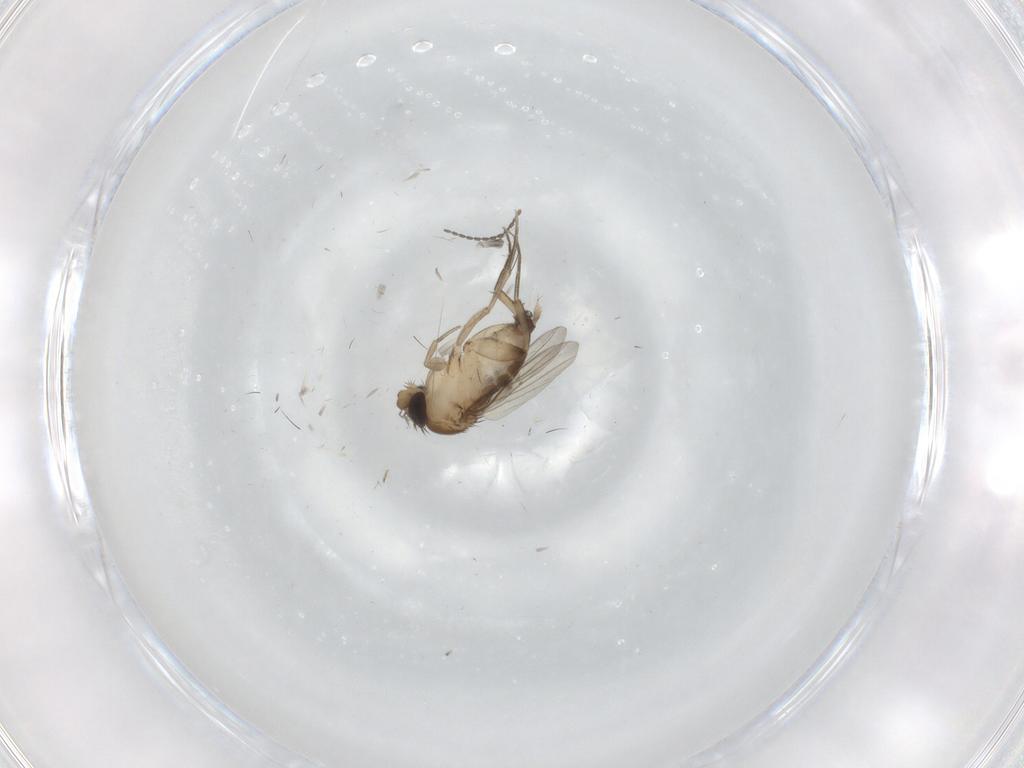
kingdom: Animalia
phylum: Arthropoda
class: Insecta
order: Diptera
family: Phoridae
